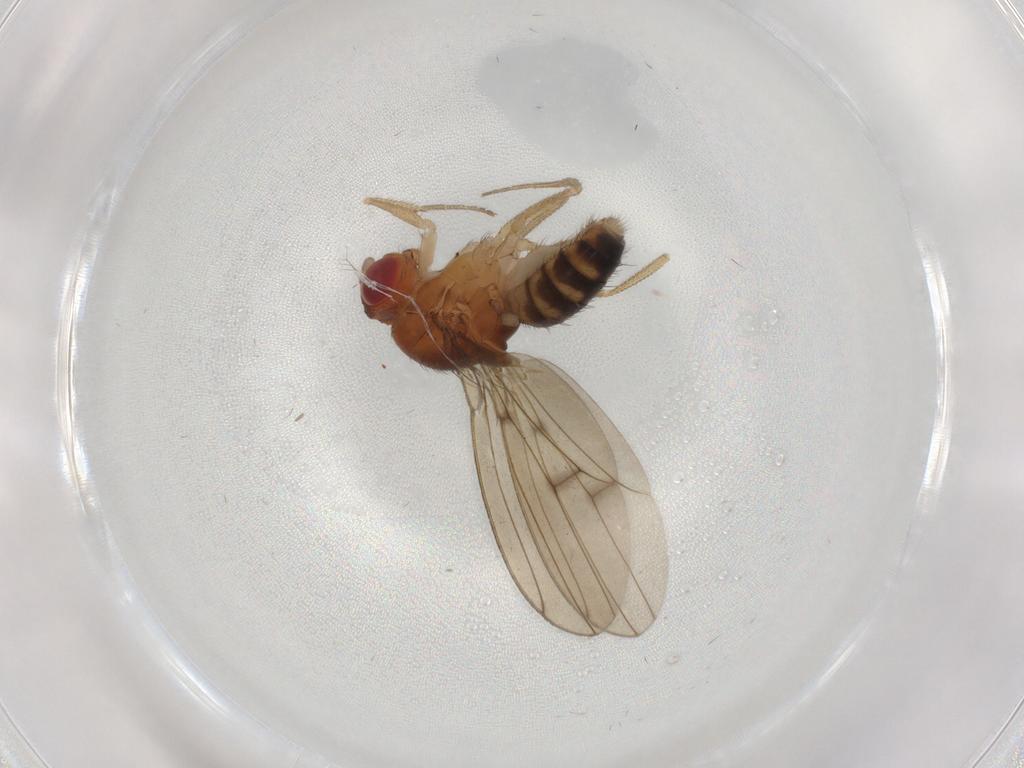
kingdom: Animalia
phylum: Arthropoda
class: Insecta
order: Diptera
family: Drosophilidae
